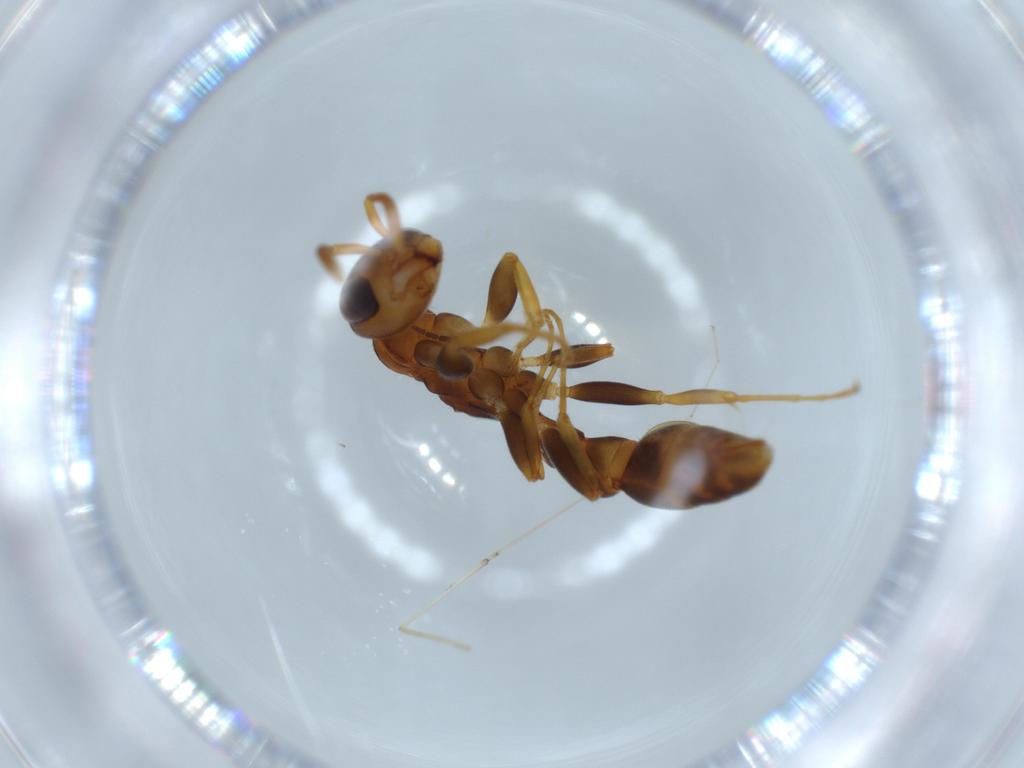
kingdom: Animalia
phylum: Arthropoda
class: Insecta
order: Hymenoptera
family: Formicidae
